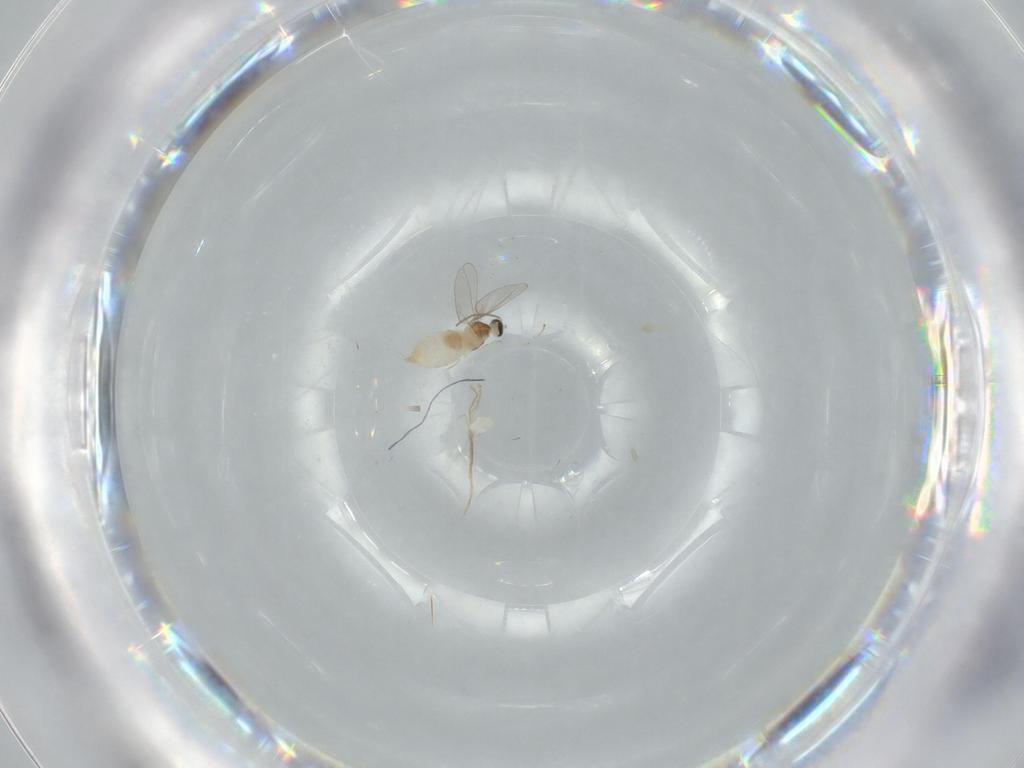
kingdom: Animalia
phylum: Arthropoda
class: Insecta
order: Diptera
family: Cecidomyiidae
